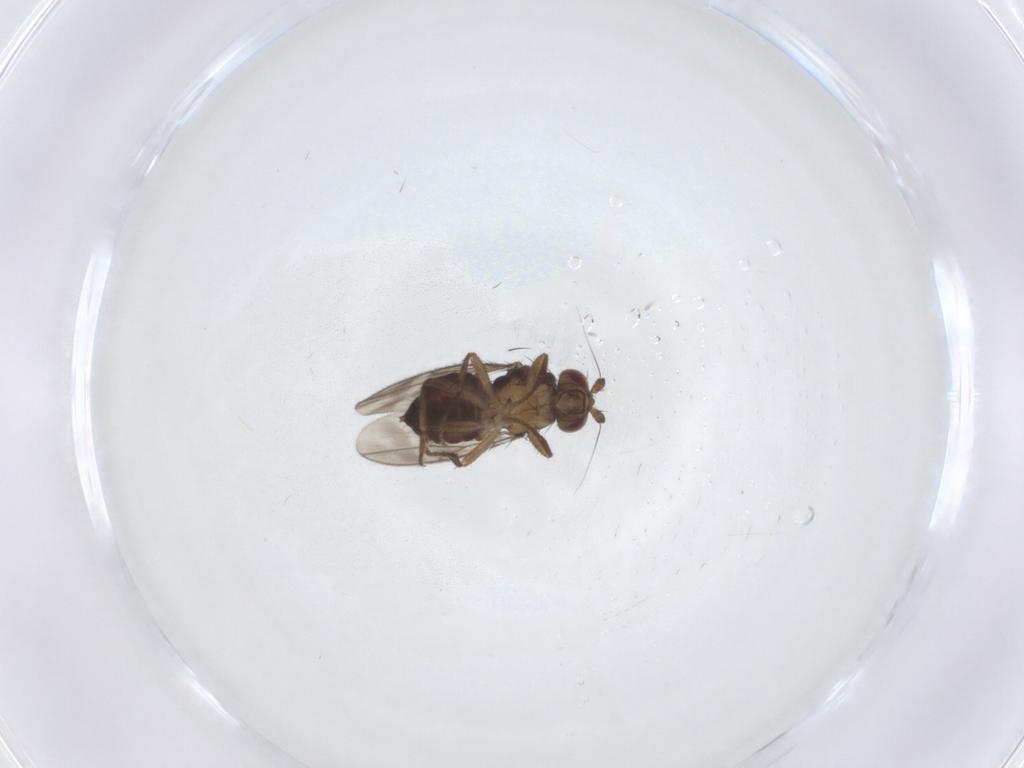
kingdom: Animalia
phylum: Arthropoda
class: Insecta
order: Diptera
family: Sphaeroceridae
